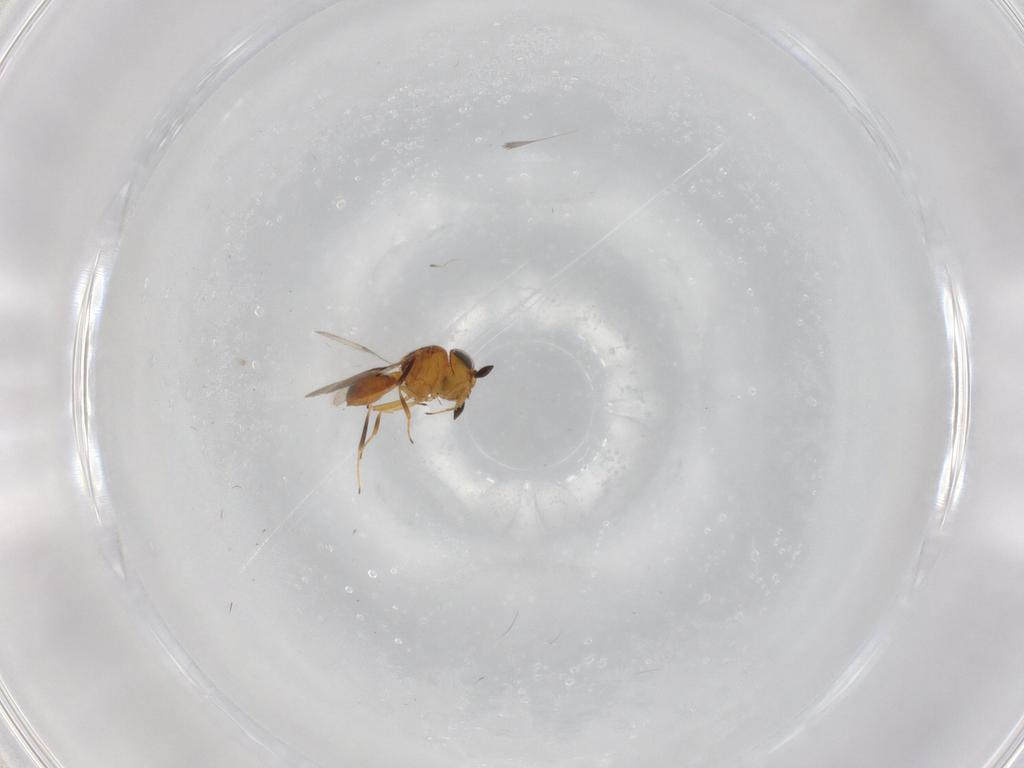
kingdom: Animalia
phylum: Arthropoda
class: Insecta
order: Hymenoptera
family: Scelionidae
